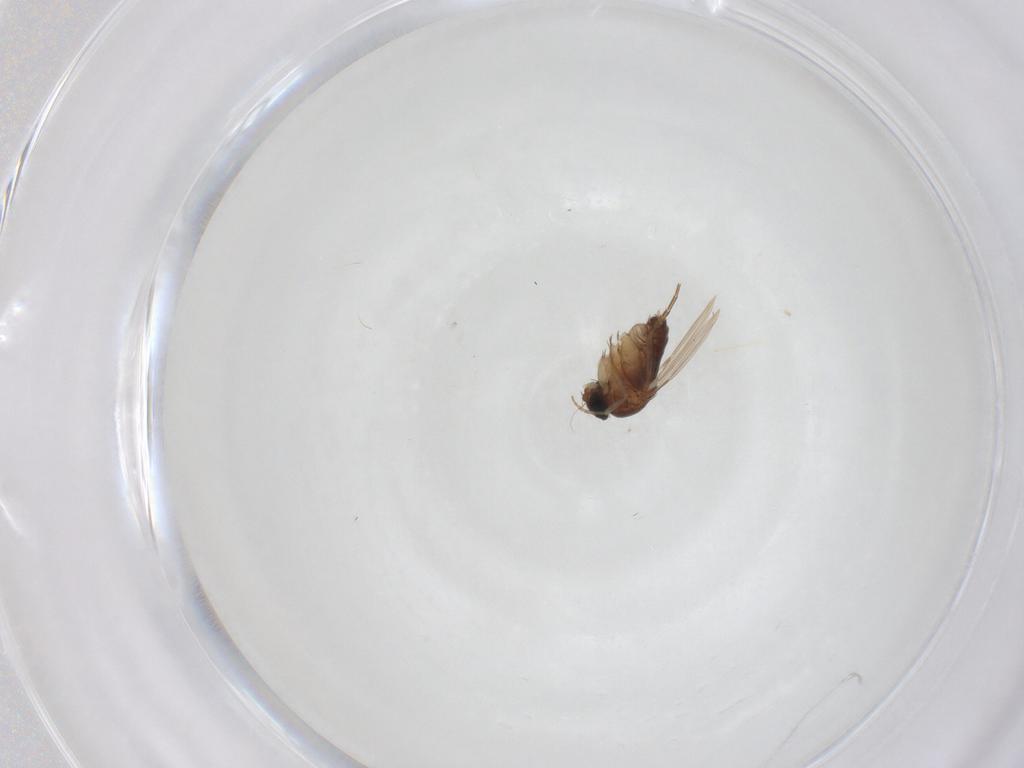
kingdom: Animalia
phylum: Arthropoda
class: Insecta
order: Diptera
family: Phoridae
